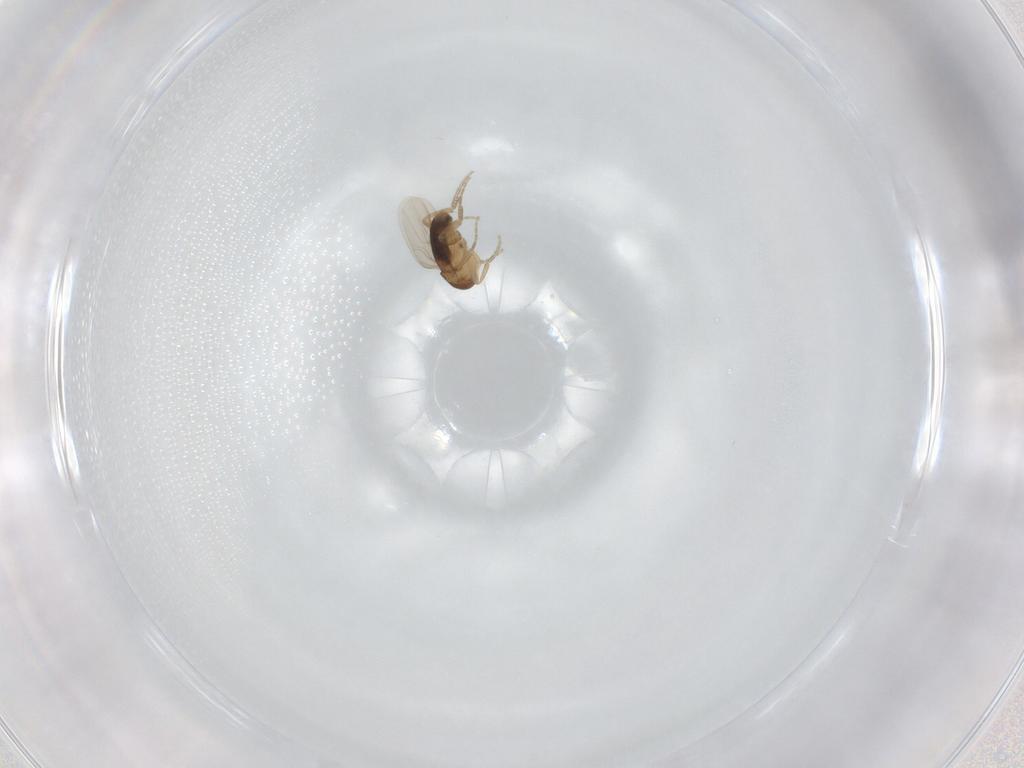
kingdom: Animalia
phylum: Arthropoda
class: Insecta
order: Diptera
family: Phoridae
